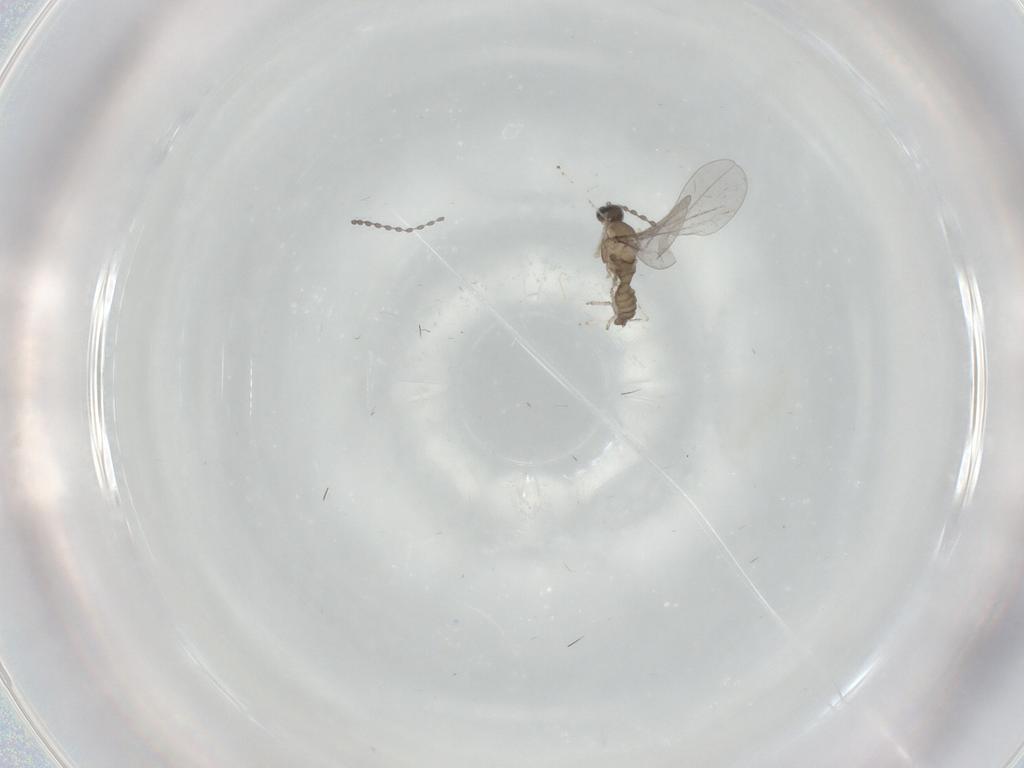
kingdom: Animalia
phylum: Arthropoda
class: Insecta
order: Diptera
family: Cecidomyiidae
